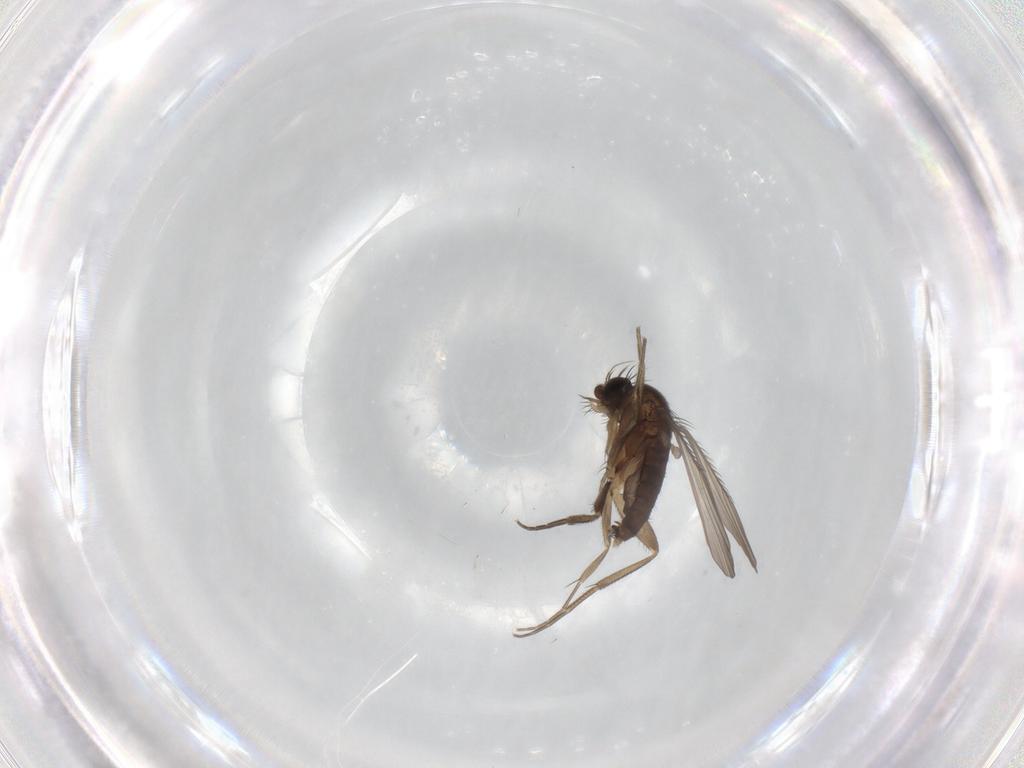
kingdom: Animalia
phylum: Arthropoda
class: Insecta
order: Diptera
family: Phoridae
